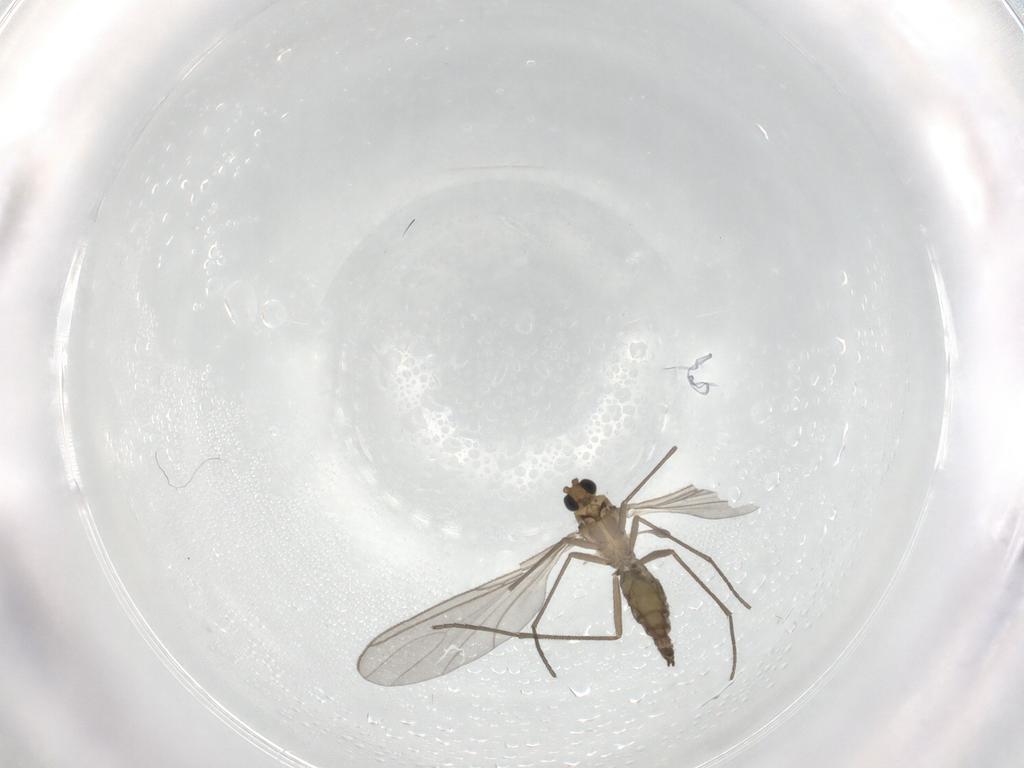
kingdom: Animalia
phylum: Arthropoda
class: Insecta
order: Diptera
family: Sciaridae
